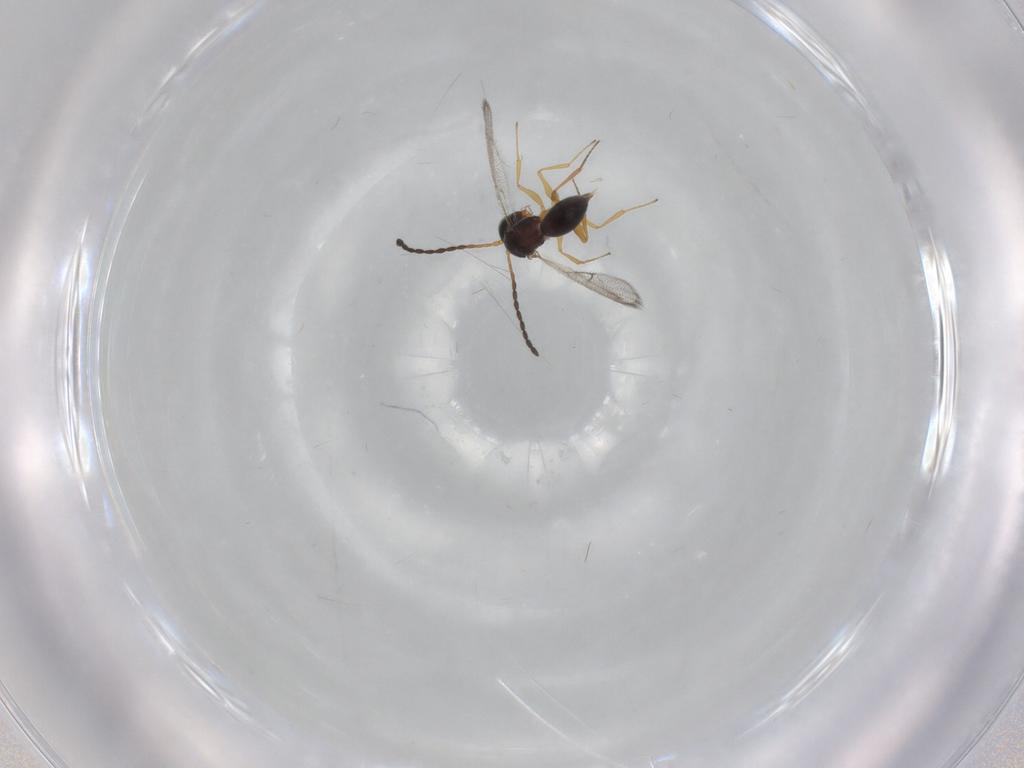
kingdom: Animalia
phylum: Arthropoda
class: Insecta
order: Hymenoptera
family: Figitidae
